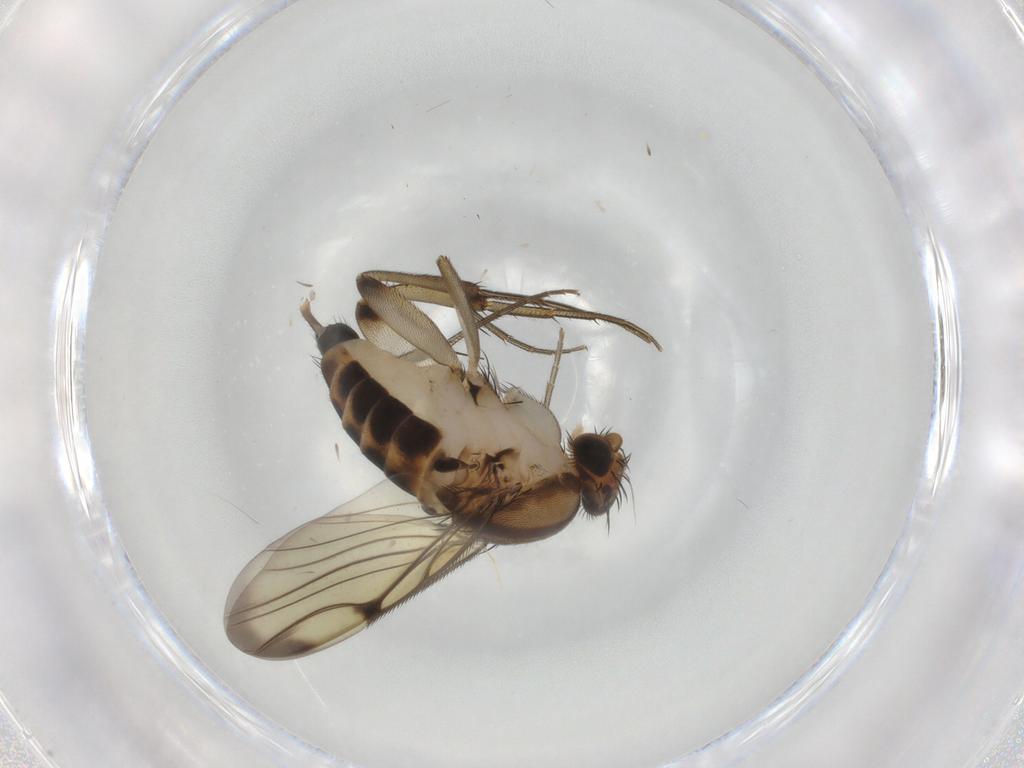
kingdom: Animalia
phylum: Arthropoda
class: Insecta
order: Diptera
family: Phoridae
